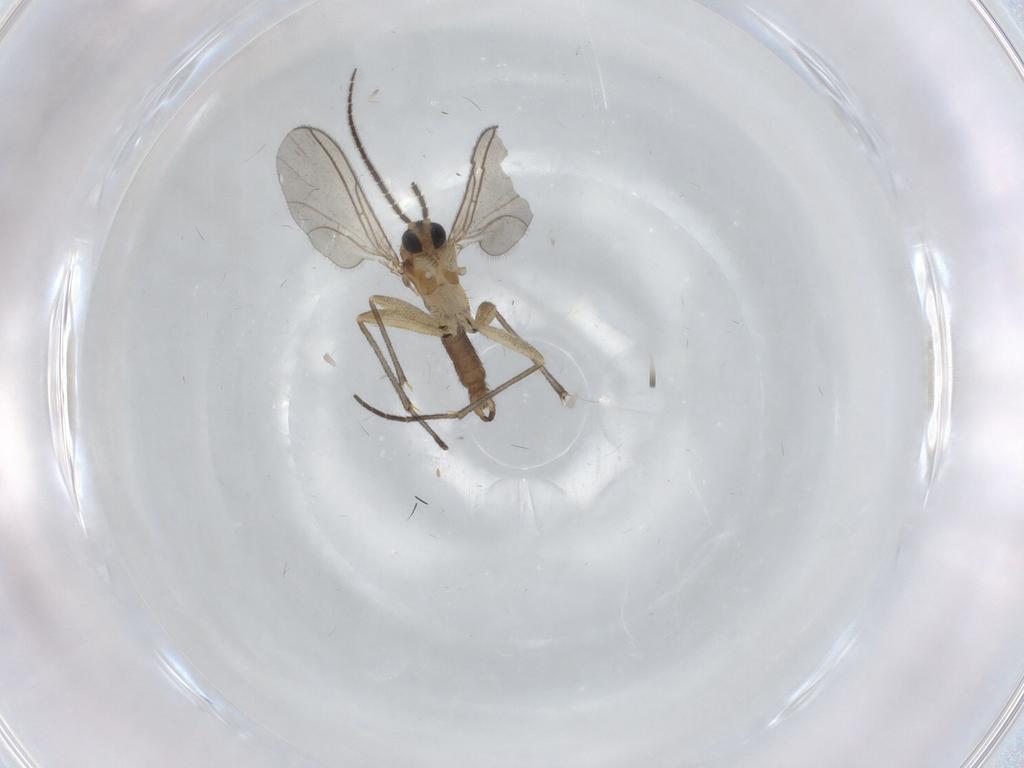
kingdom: Animalia
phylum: Arthropoda
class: Insecta
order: Diptera
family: Sciaridae
